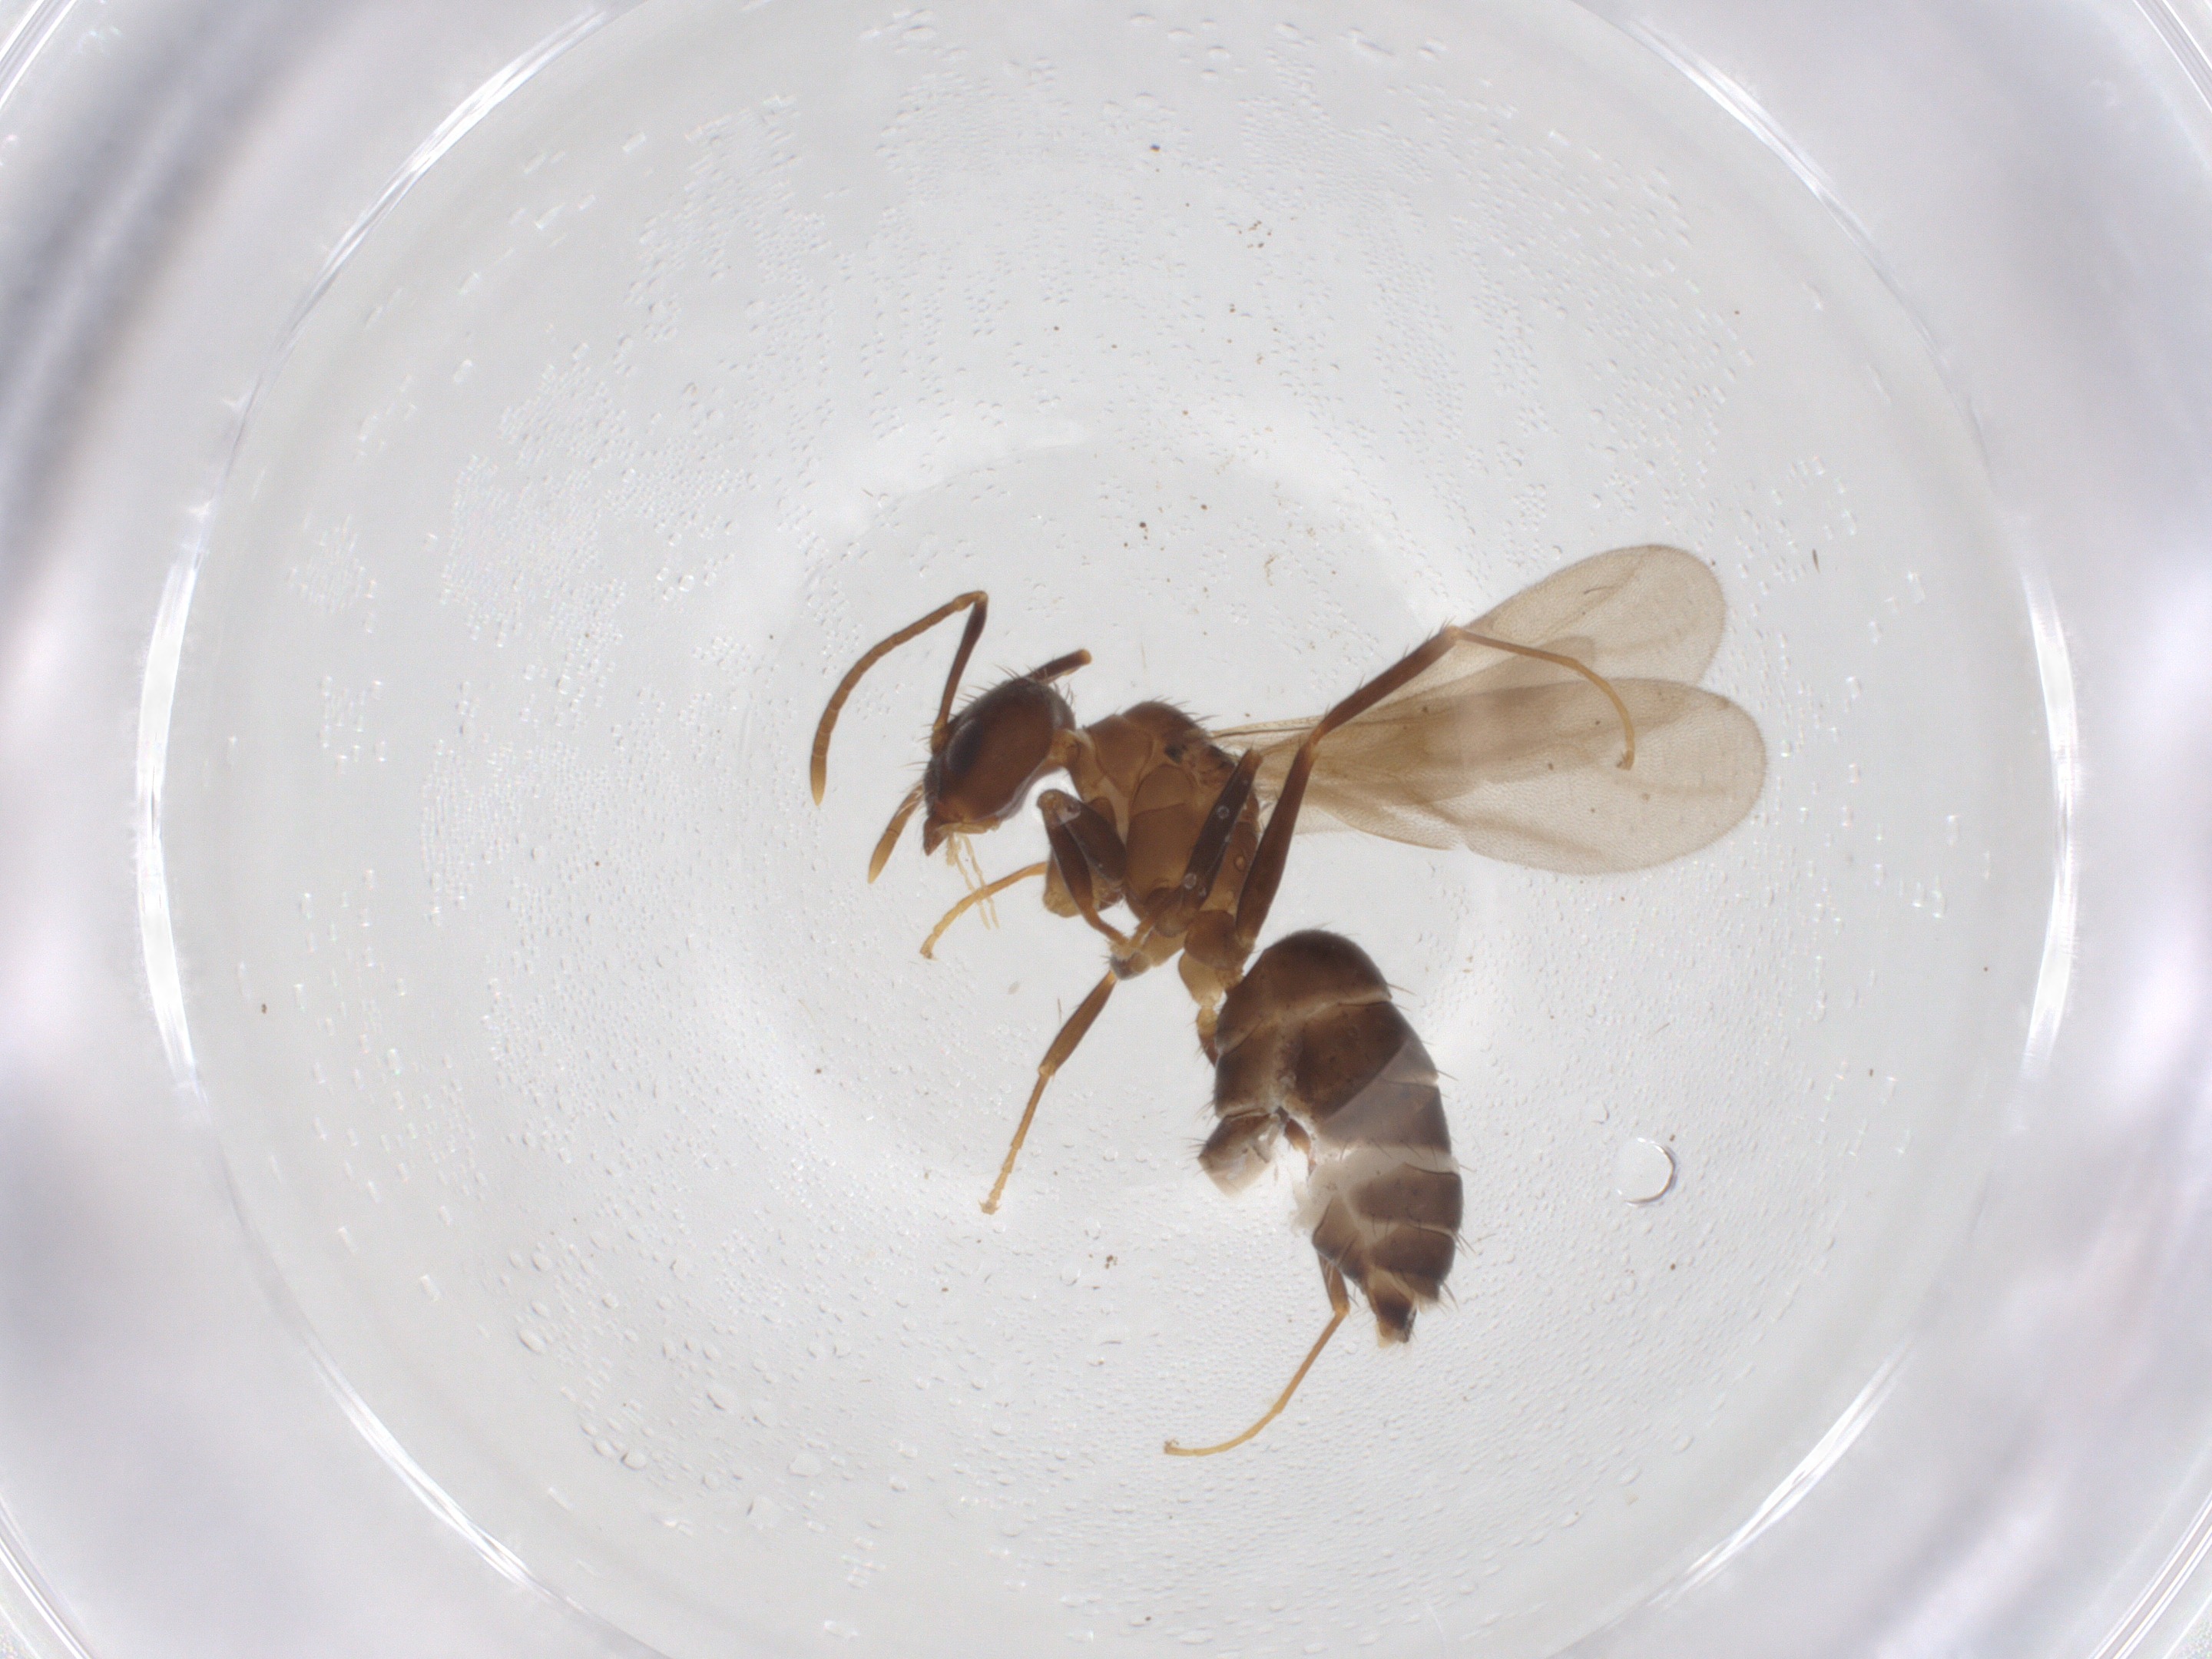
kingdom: Animalia
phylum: Arthropoda
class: Insecta
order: Hymenoptera
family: Formicidae
